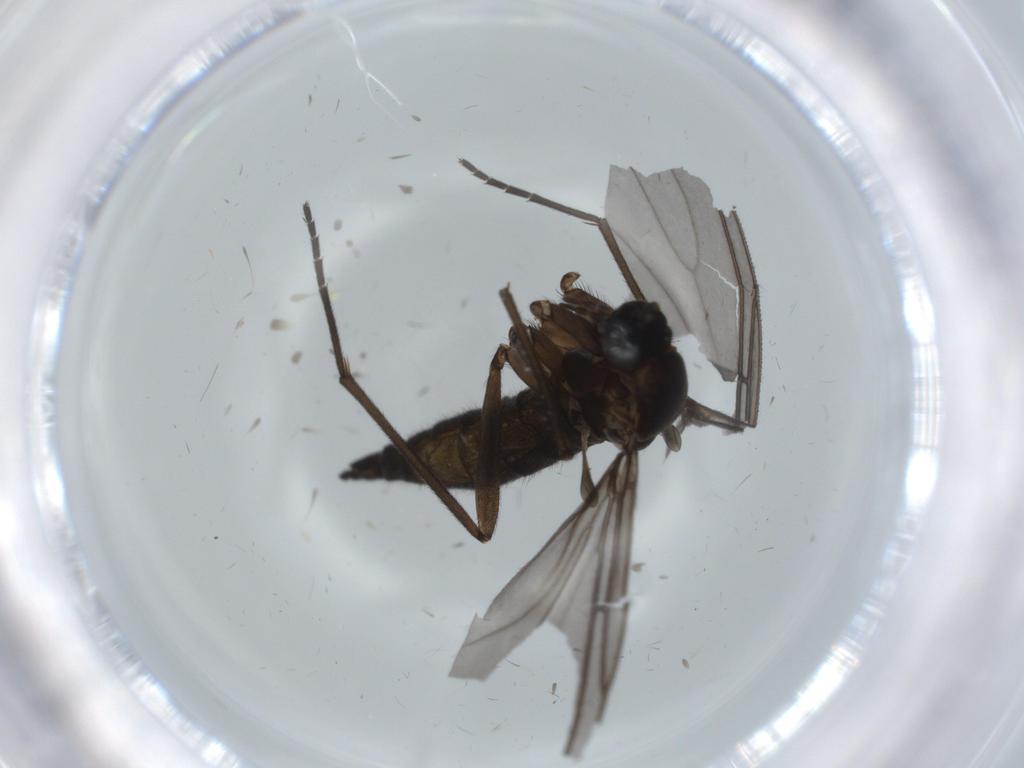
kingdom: Animalia
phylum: Arthropoda
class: Insecta
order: Diptera
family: Sciaridae
